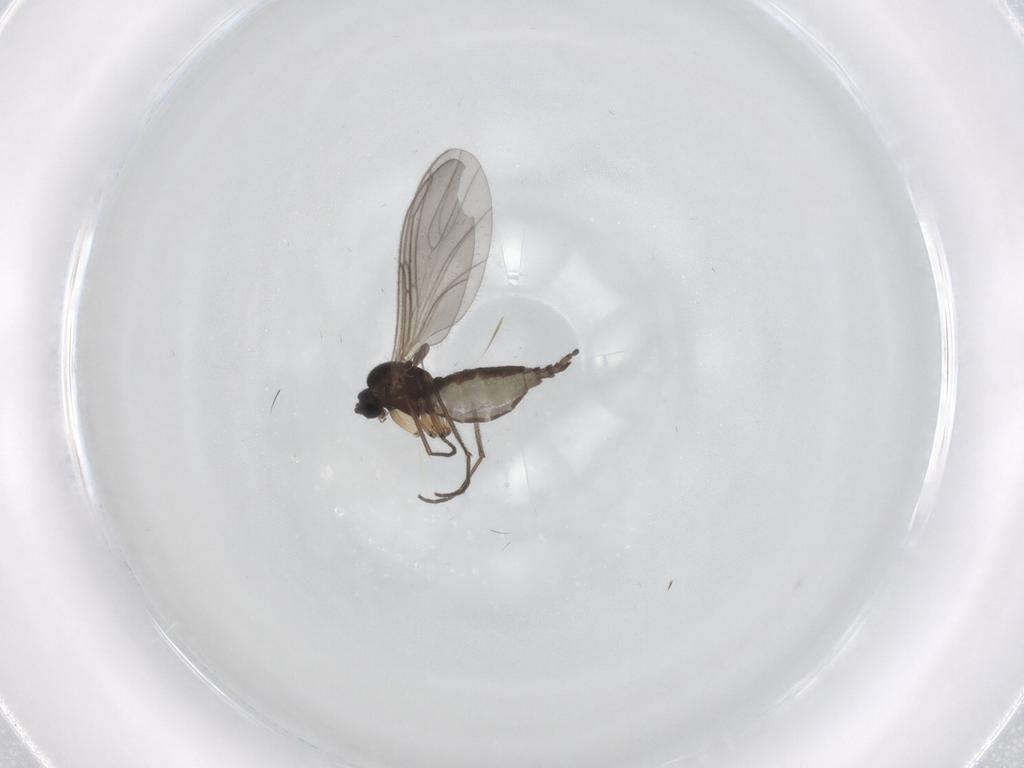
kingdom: Animalia
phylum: Arthropoda
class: Insecta
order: Diptera
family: Sciaridae
